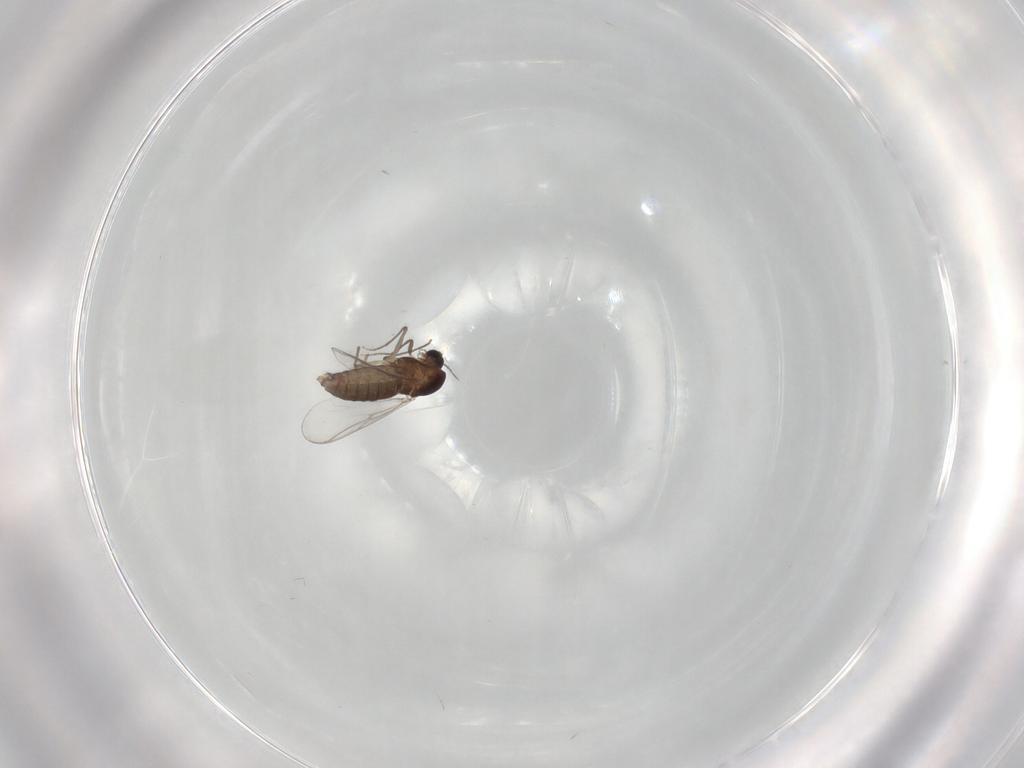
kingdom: Animalia
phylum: Arthropoda
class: Insecta
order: Diptera
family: Chironomidae
